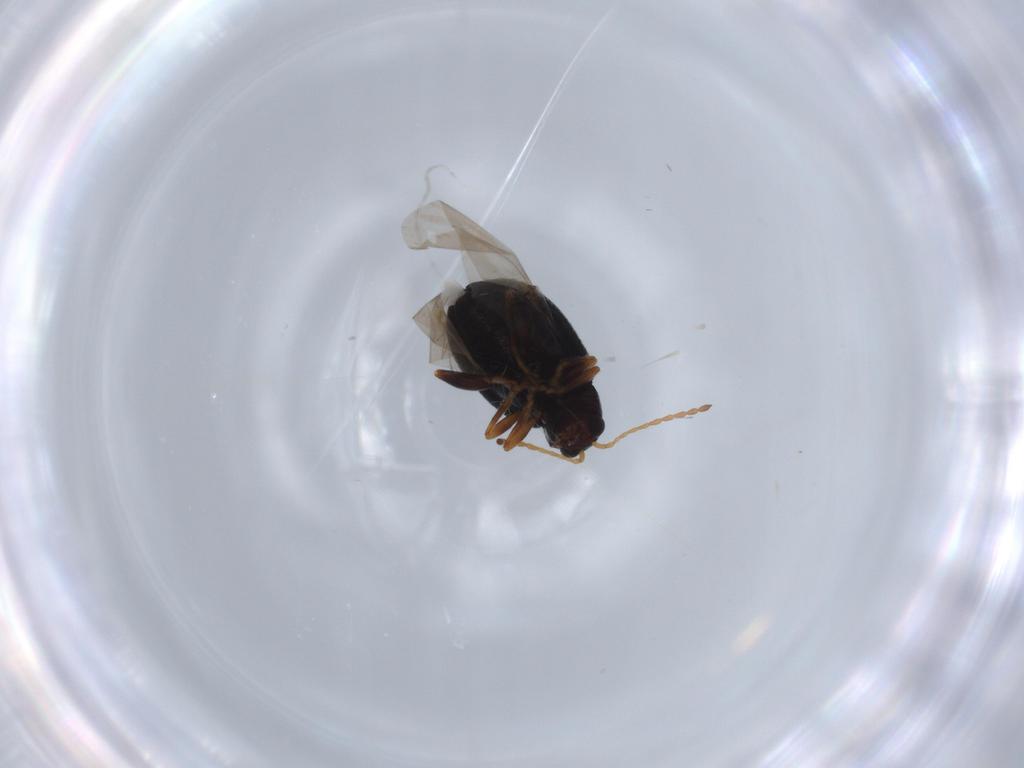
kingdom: Animalia
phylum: Arthropoda
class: Insecta
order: Coleoptera
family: Chrysomelidae
